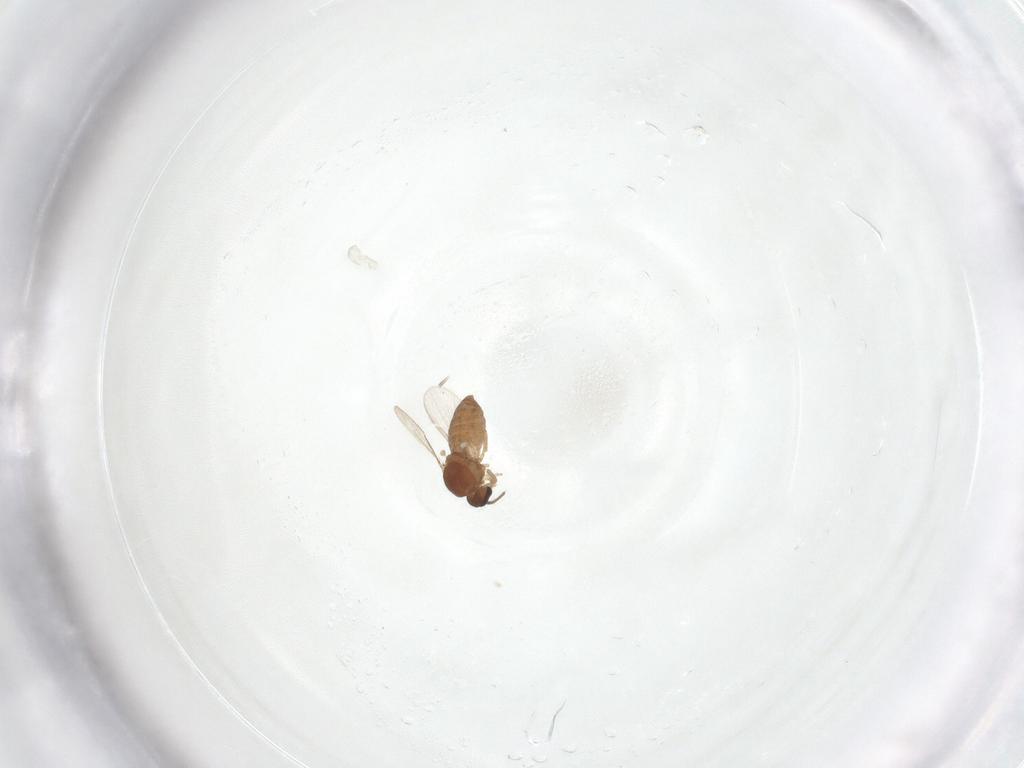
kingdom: Animalia
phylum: Arthropoda
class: Insecta
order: Diptera
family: Ceratopogonidae
